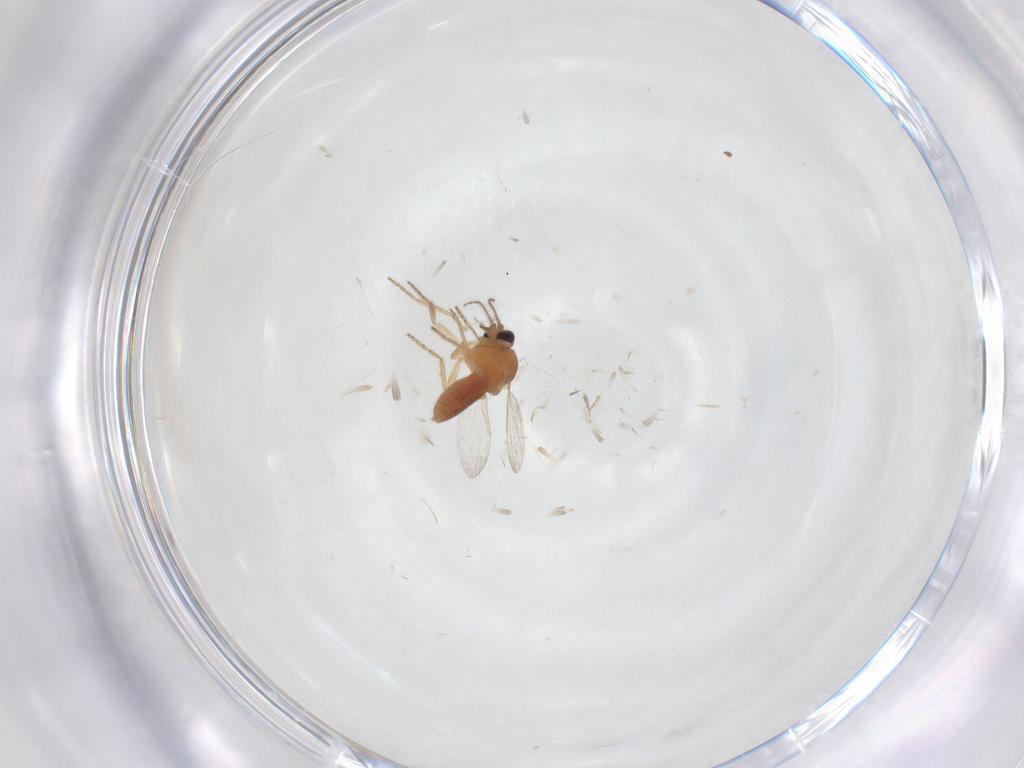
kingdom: Animalia
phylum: Arthropoda
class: Insecta
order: Diptera
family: Ceratopogonidae
